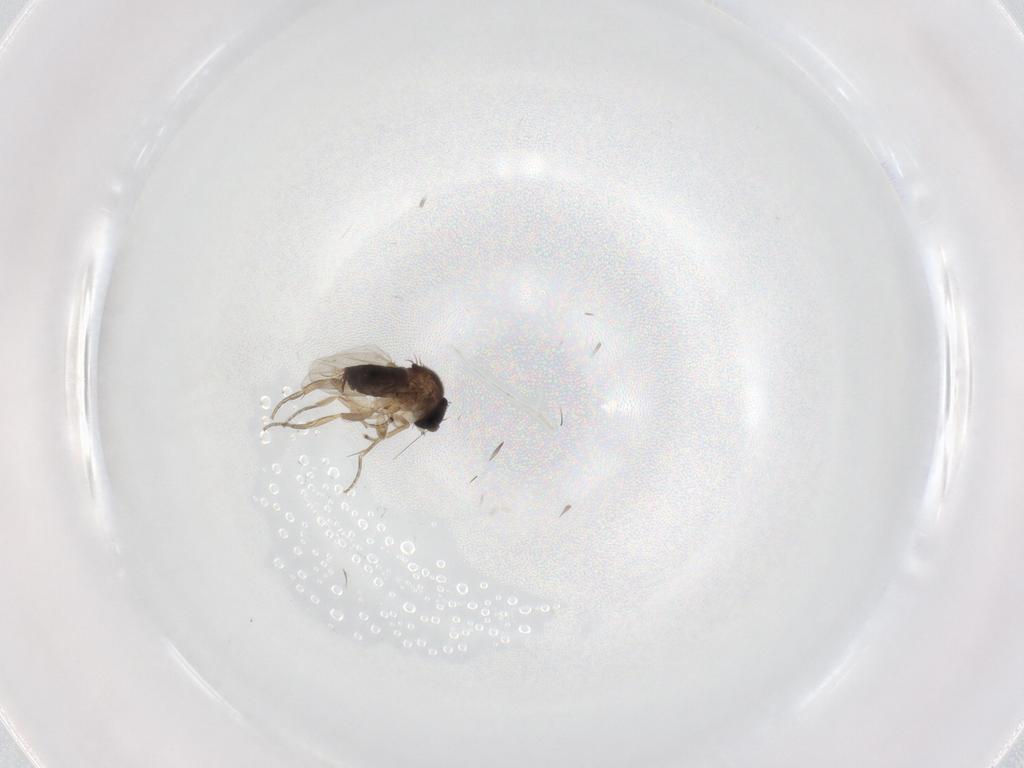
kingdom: Animalia
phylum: Arthropoda
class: Insecta
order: Diptera
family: Phoridae
